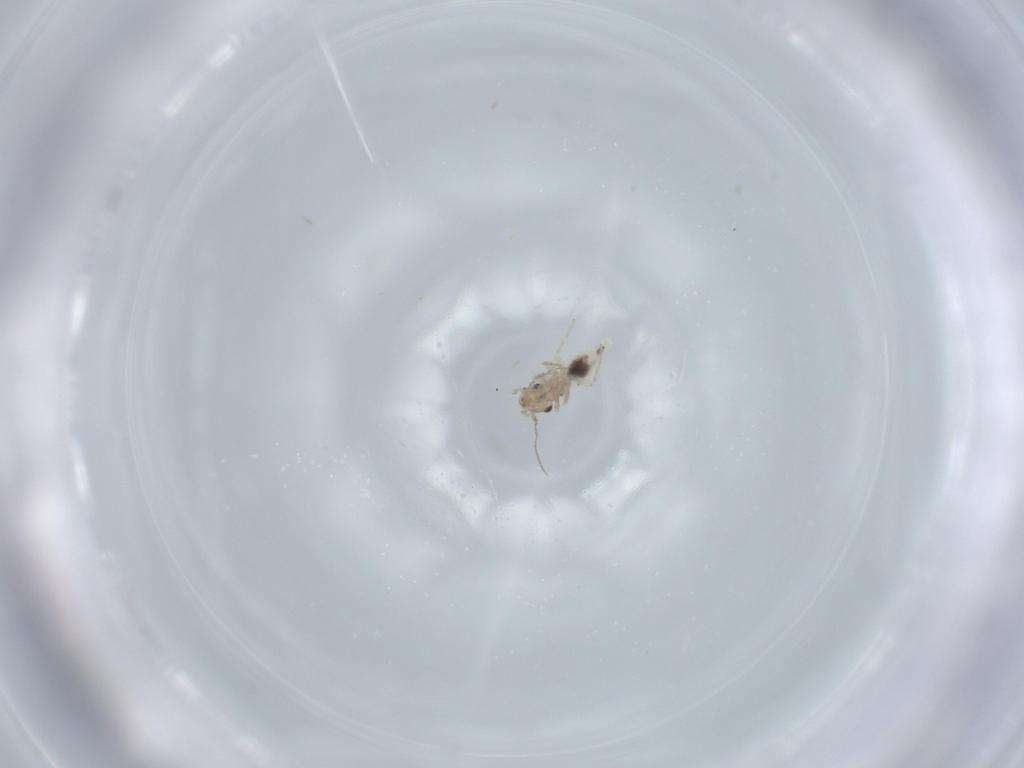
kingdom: Animalia
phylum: Arthropoda
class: Insecta
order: Psocodea
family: Lepidopsocidae
